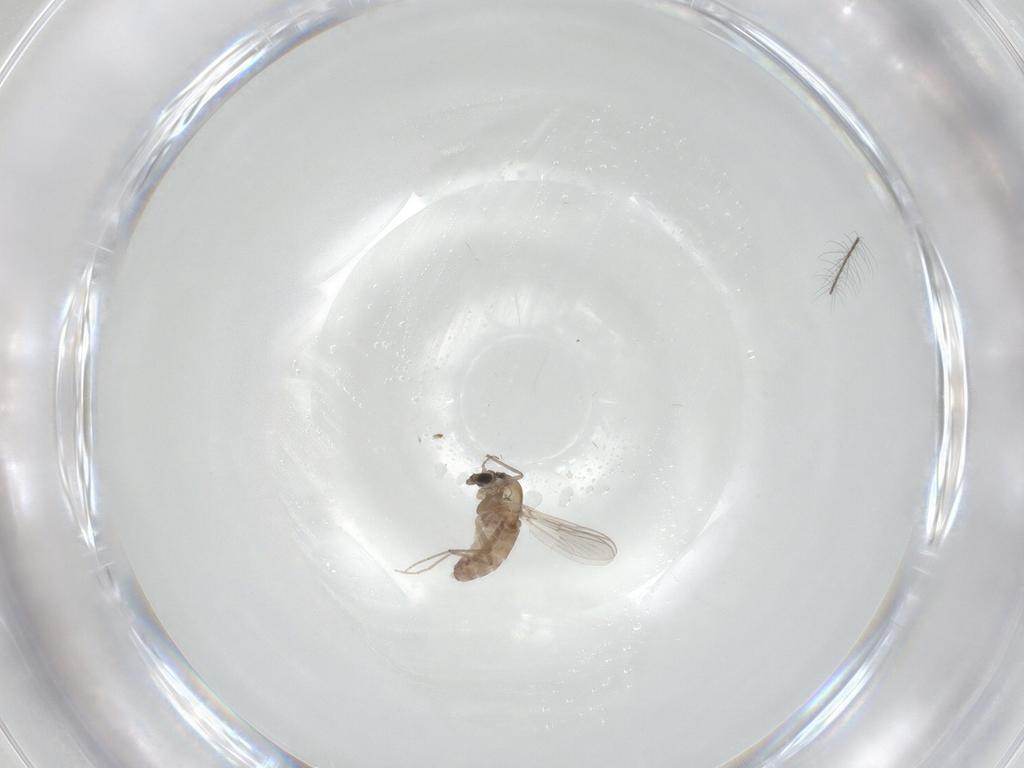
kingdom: Animalia
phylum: Arthropoda
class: Insecta
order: Diptera
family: Chironomidae
